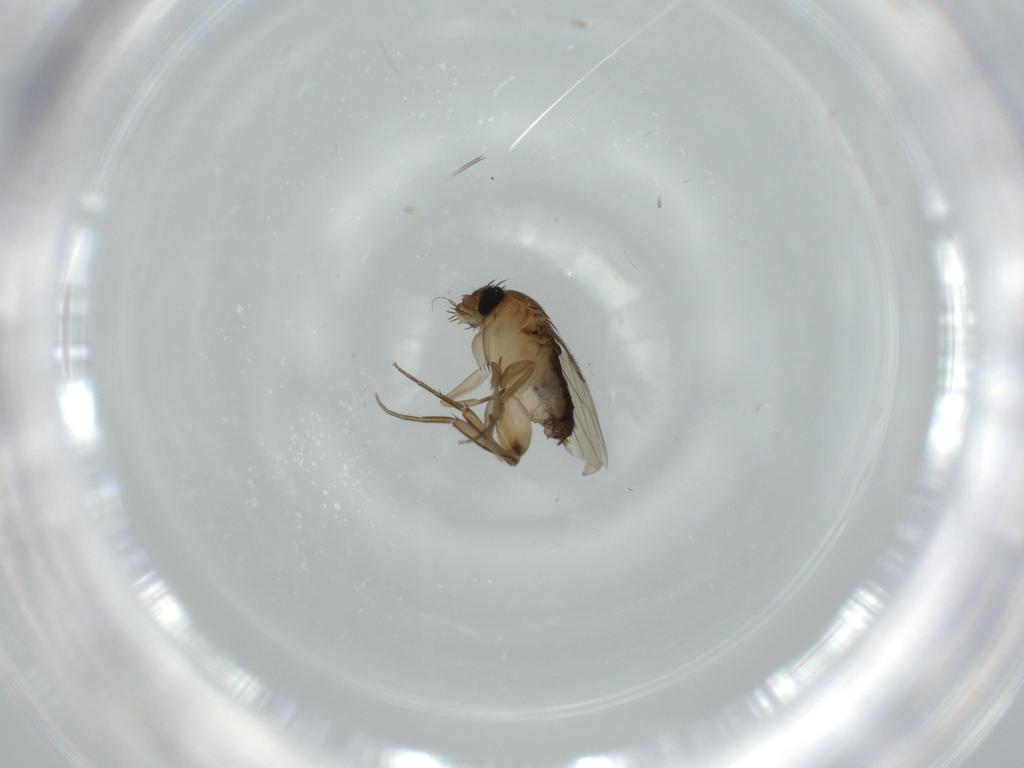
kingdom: Animalia
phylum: Arthropoda
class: Insecta
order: Diptera
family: Phoridae
